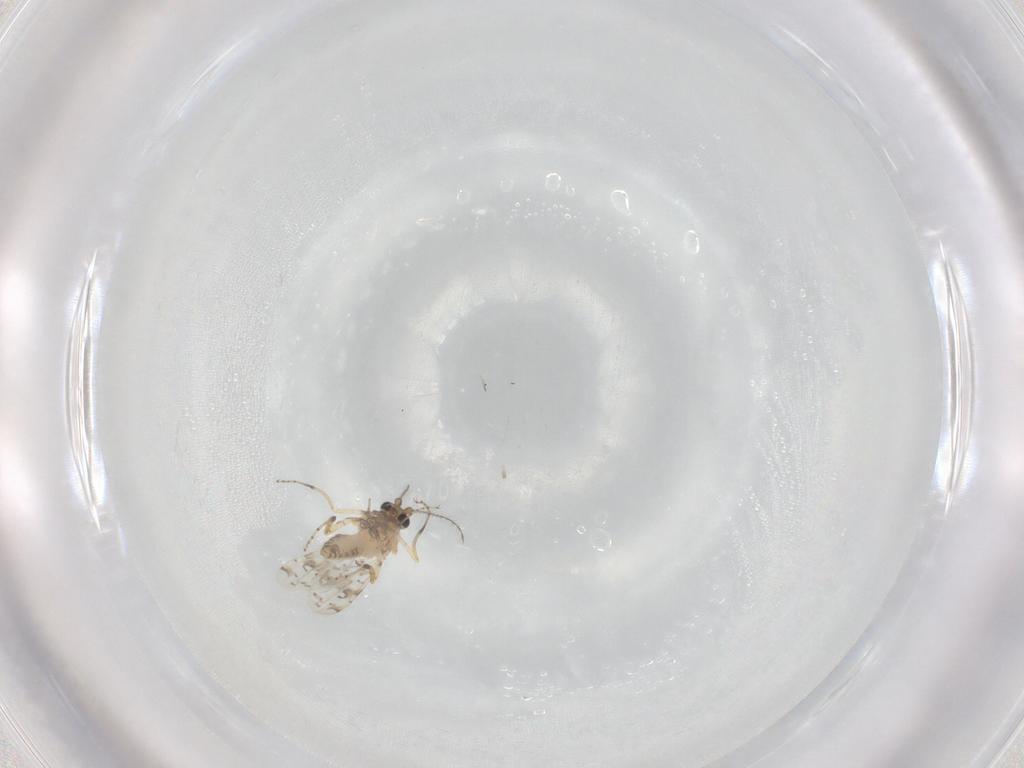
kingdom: Animalia
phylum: Arthropoda
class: Insecta
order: Diptera
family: Ceratopogonidae
